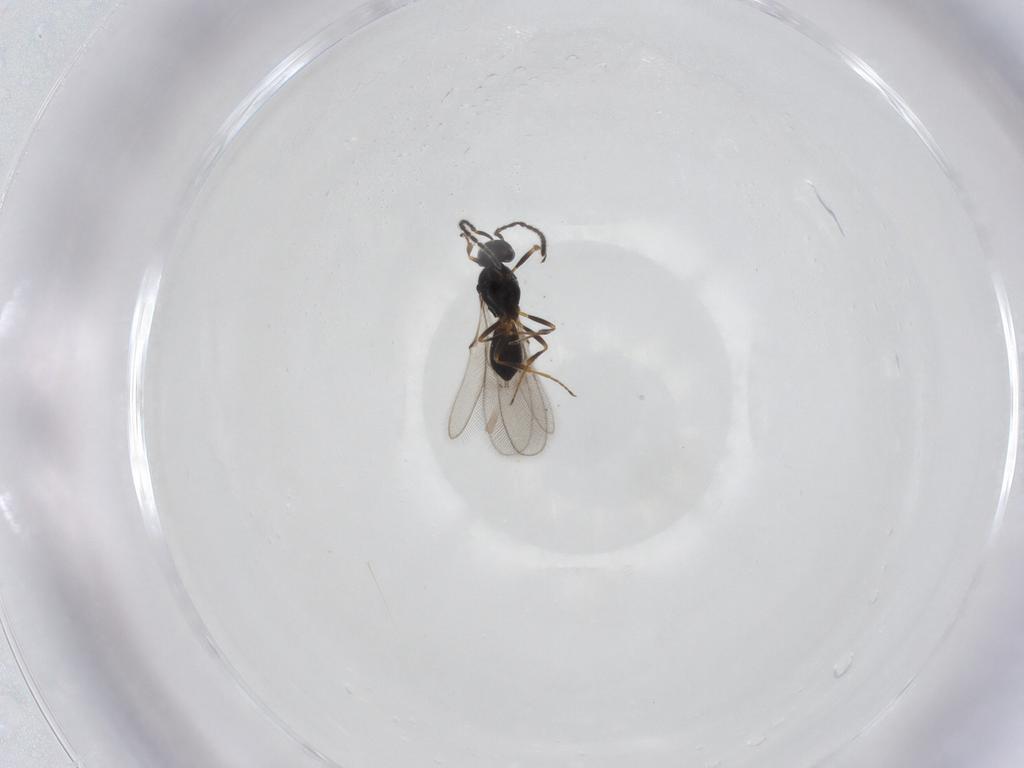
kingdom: Animalia
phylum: Arthropoda
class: Insecta
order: Hymenoptera
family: Scelionidae
